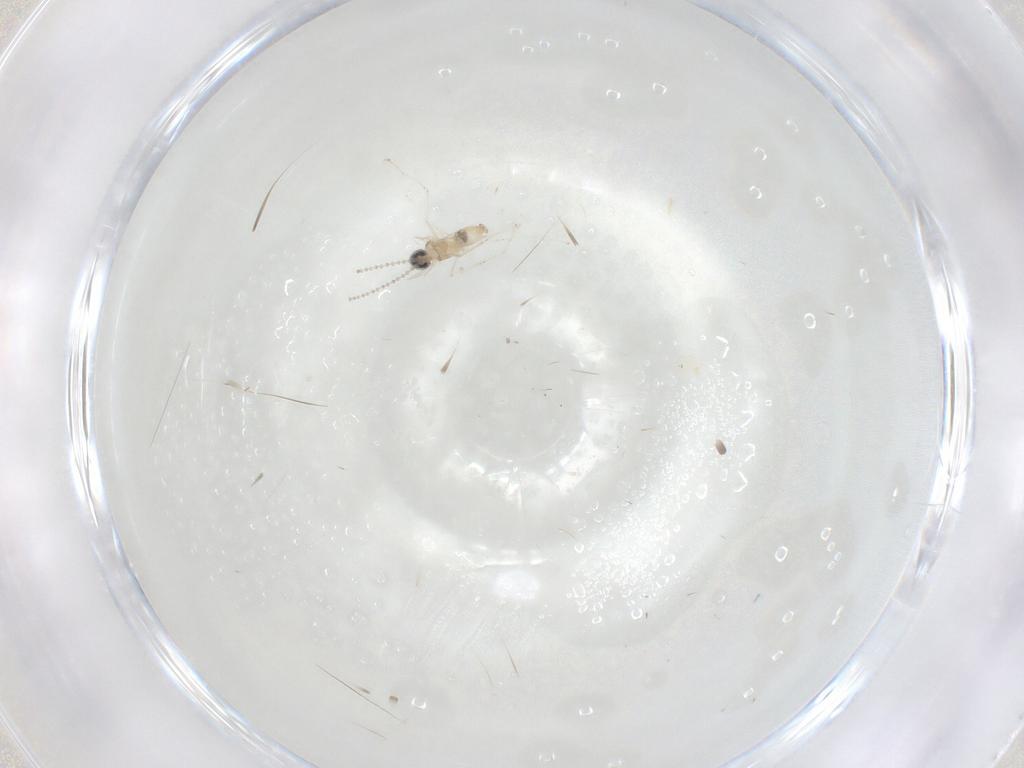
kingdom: Animalia
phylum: Arthropoda
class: Insecta
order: Diptera
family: Cecidomyiidae
